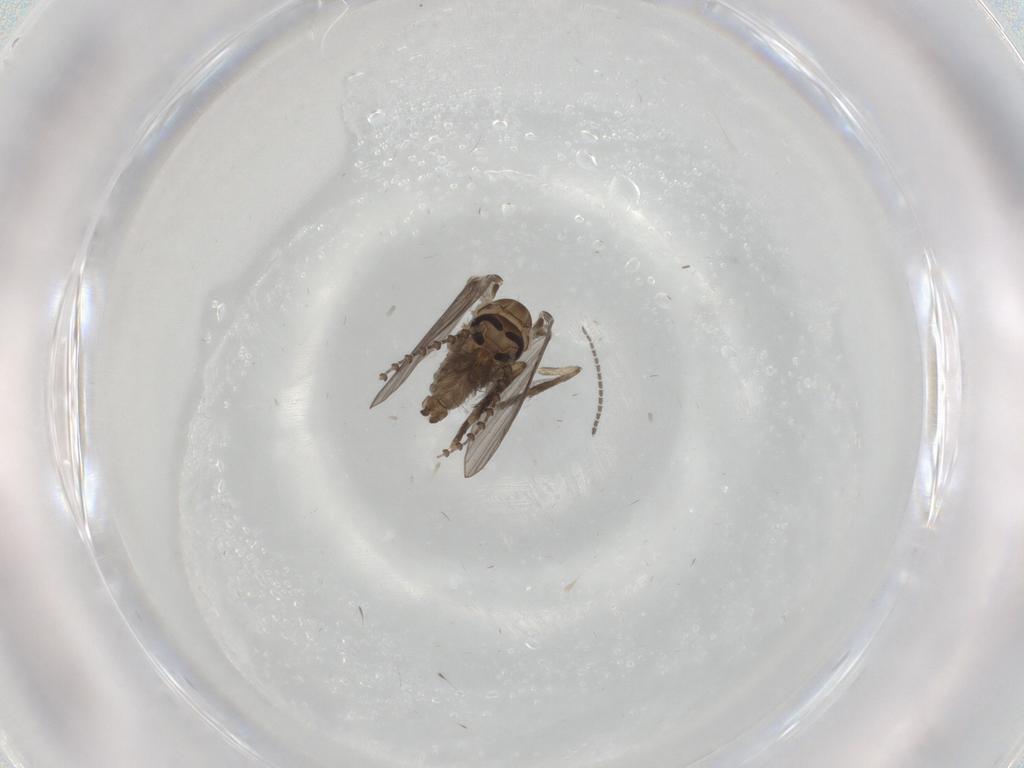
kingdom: Animalia
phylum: Arthropoda
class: Insecta
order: Diptera
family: Psychodidae
